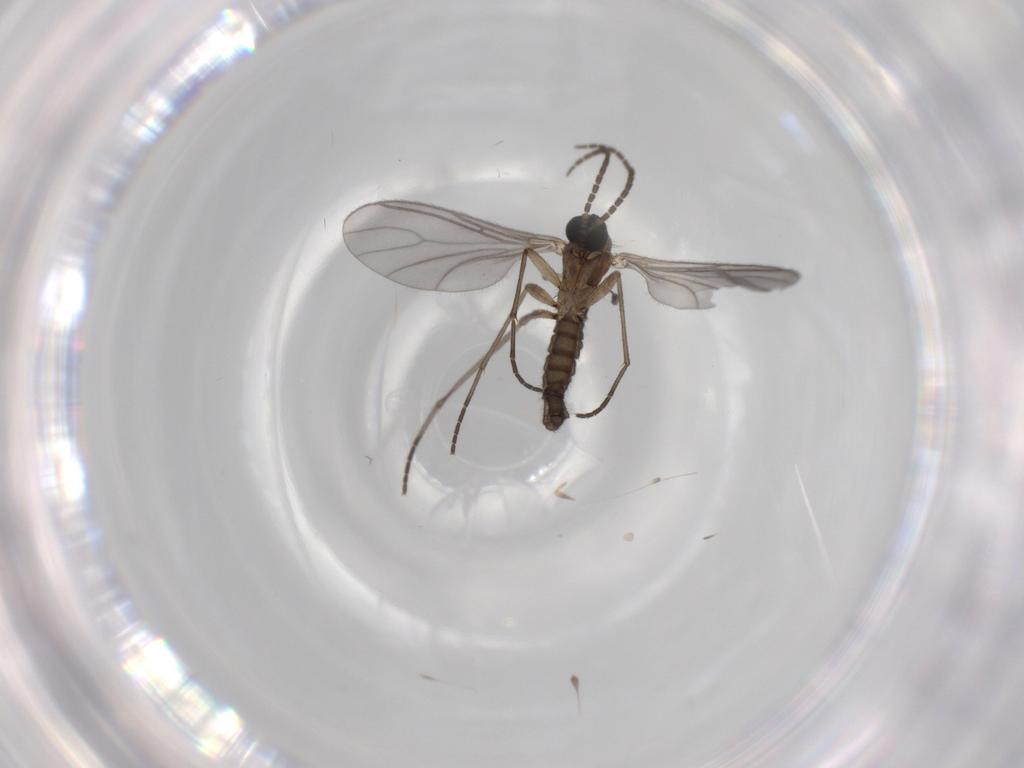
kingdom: Animalia
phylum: Arthropoda
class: Insecta
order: Diptera
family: Sciaridae
